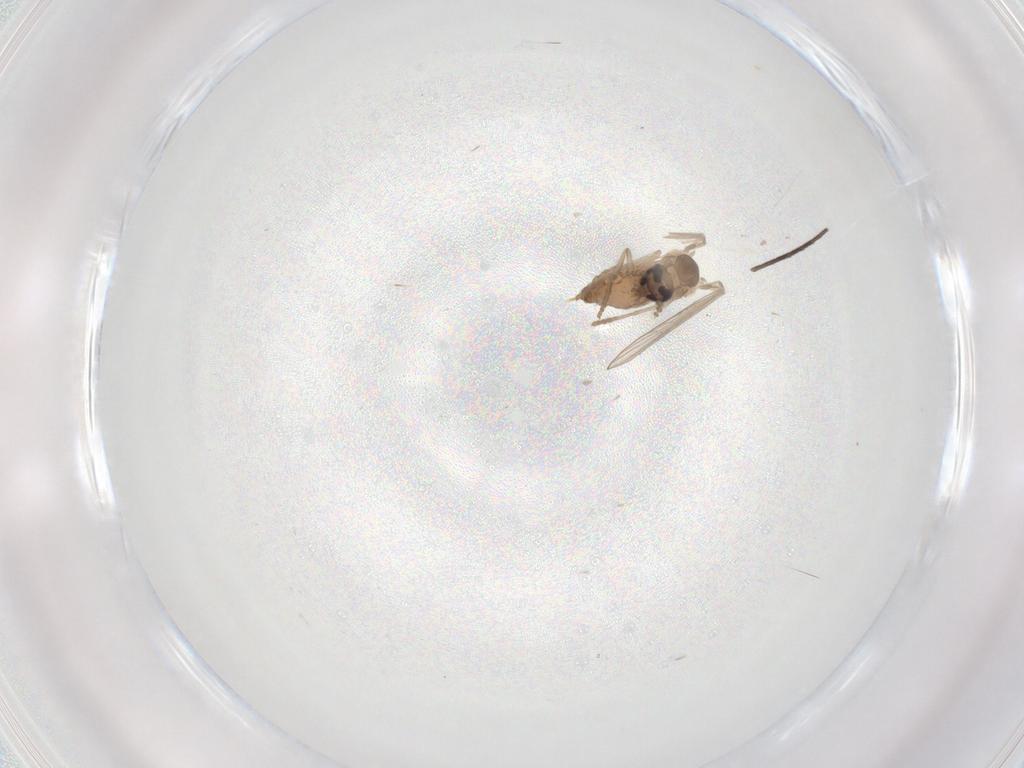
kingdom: Animalia
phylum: Arthropoda
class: Insecta
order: Diptera
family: Psychodidae
